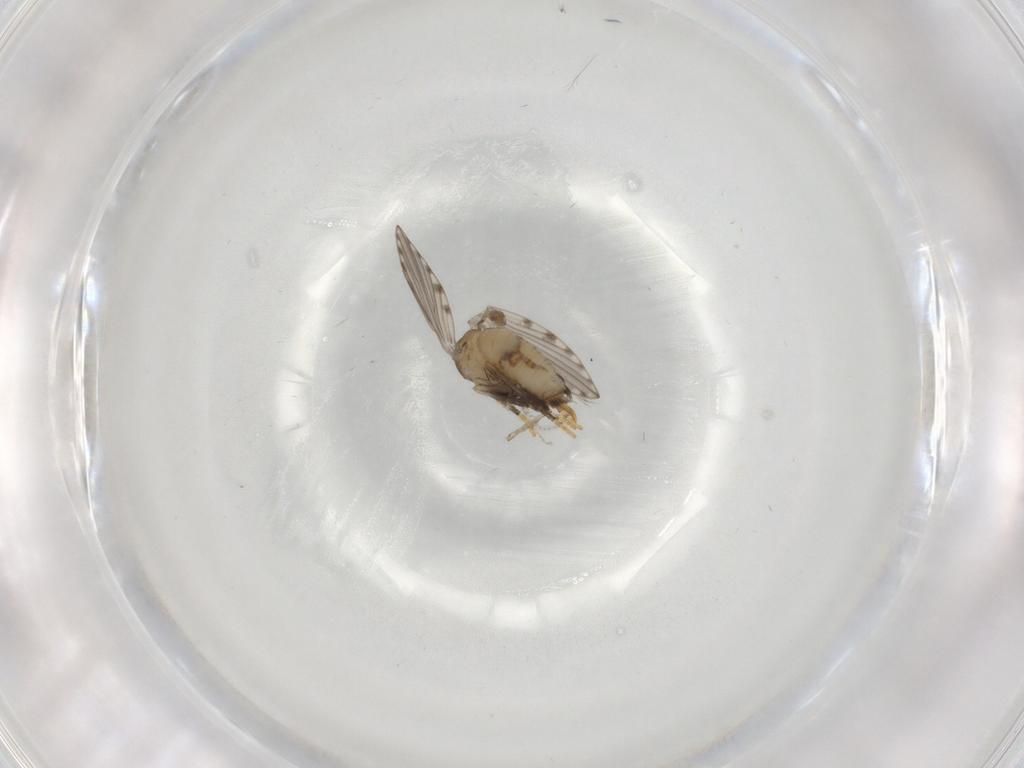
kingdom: Animalia
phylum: Arthropoda
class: Insecta
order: Diptera
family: Psychodidae
